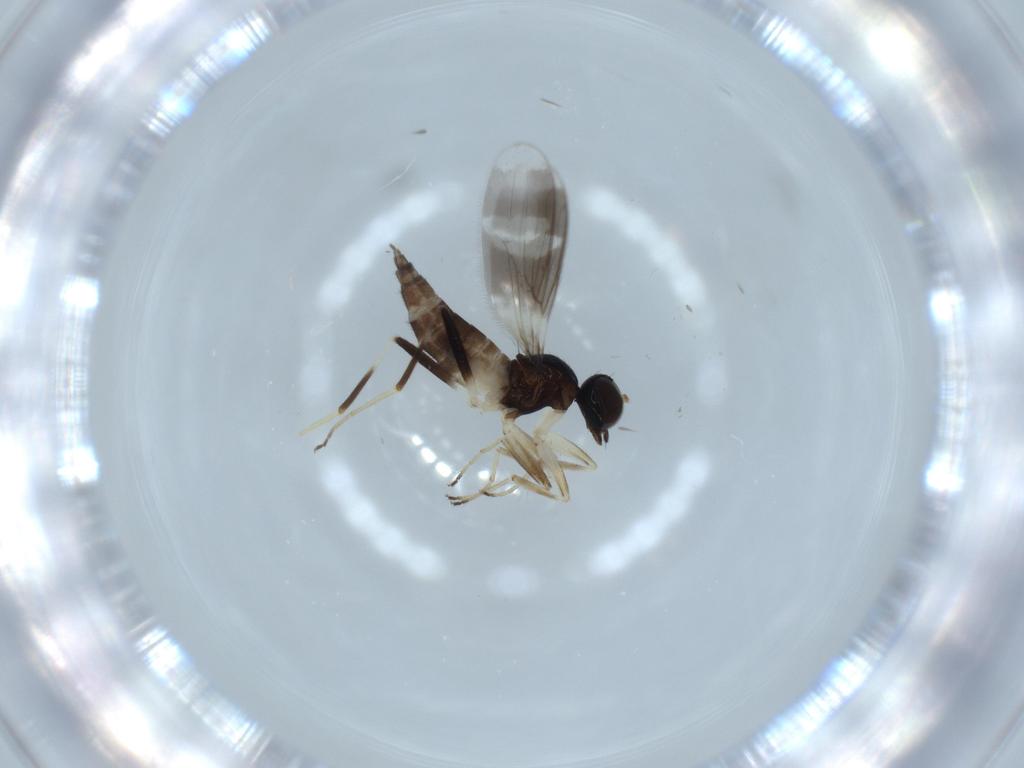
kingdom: Animalia
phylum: Arthropoda
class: Insecta
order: Diptera
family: Hybotidae
